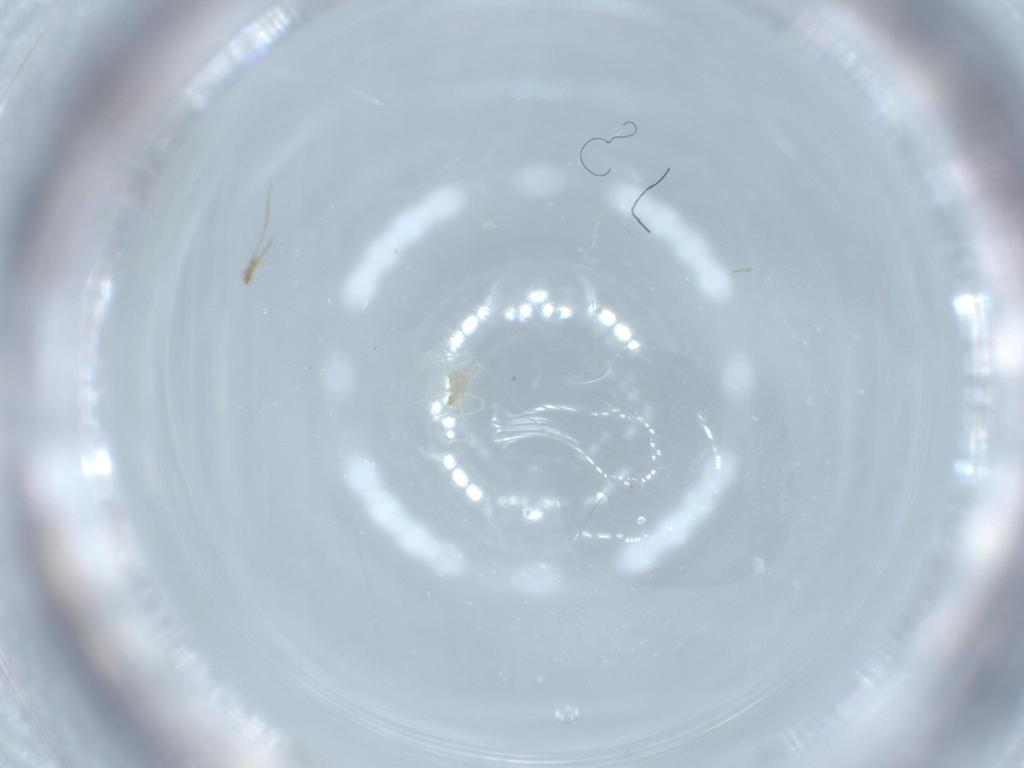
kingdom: Animalia
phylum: Arthropoda
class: Arachnida
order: Trombidiformes
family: Erythraeidae
